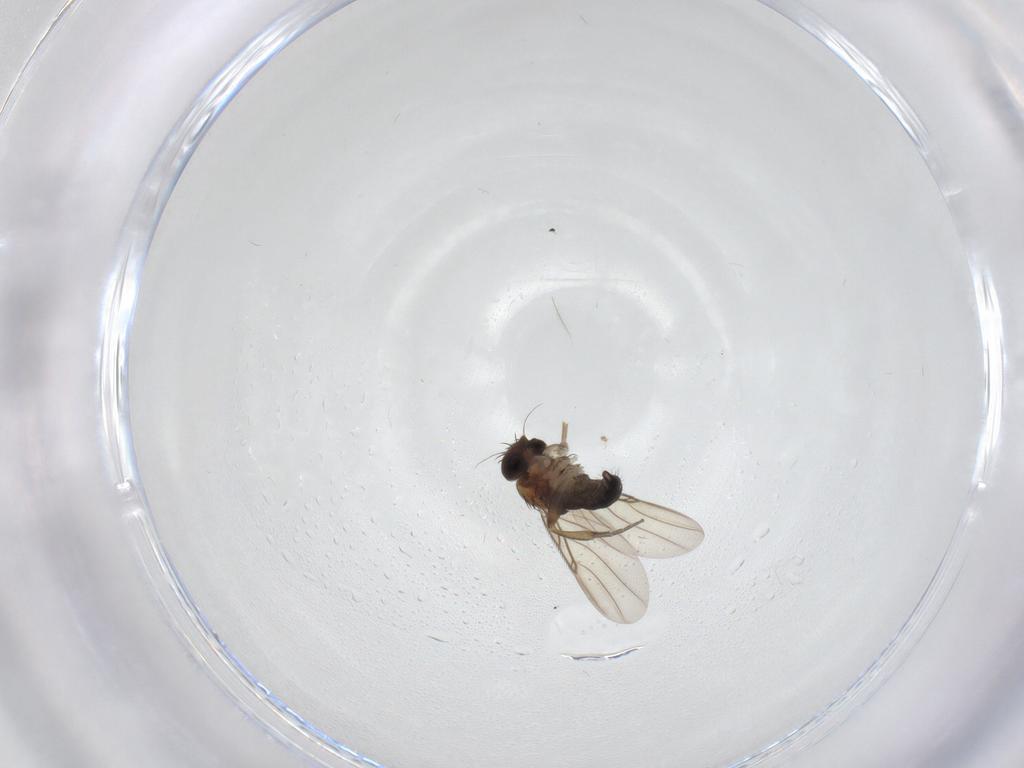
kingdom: Animalia
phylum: Arthropoda
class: Insecta
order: Diptera
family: Phoridae
